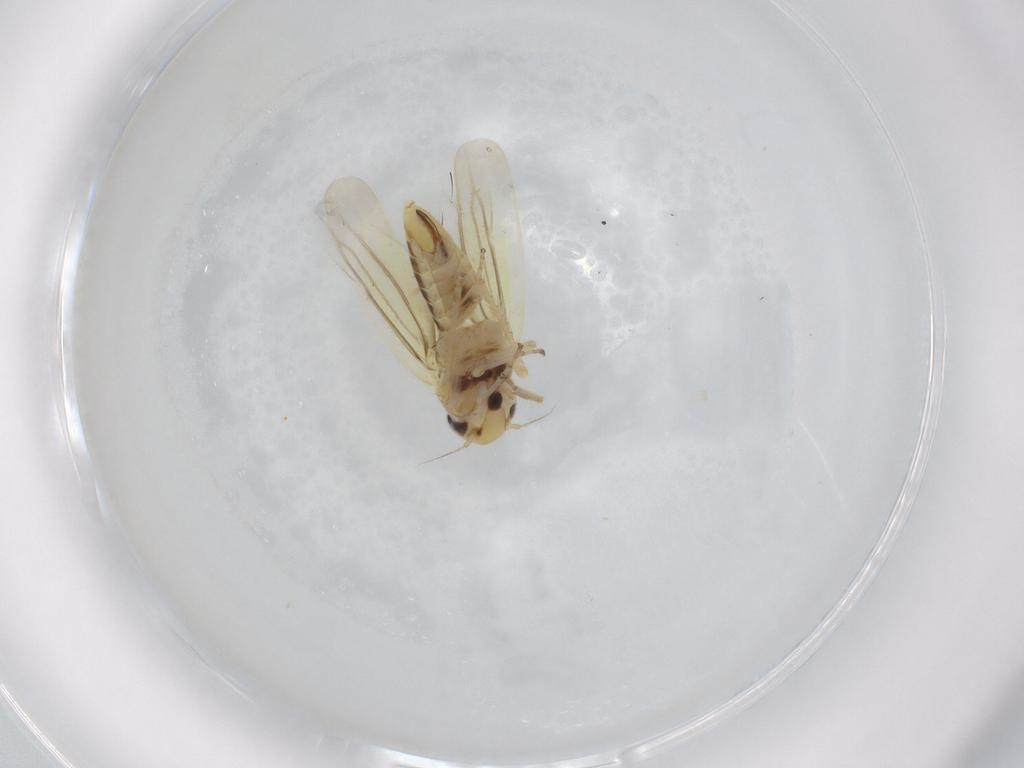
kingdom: Animalia
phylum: Arthropoda
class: Insecta
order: Hemiptera
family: Cicadellidae
